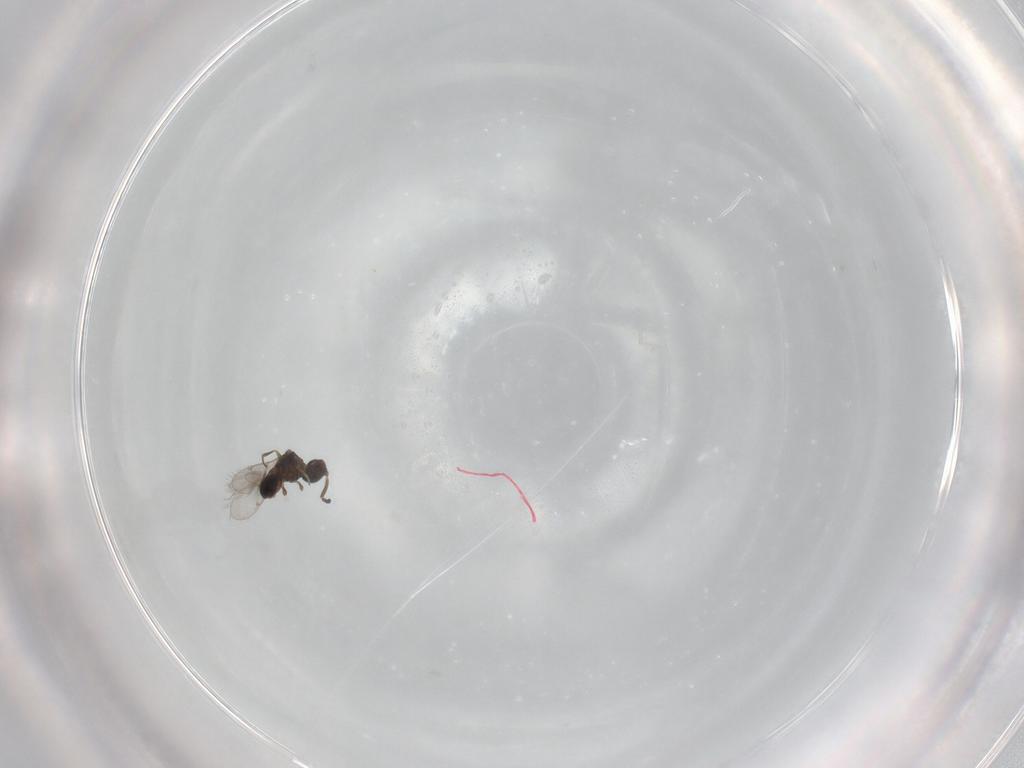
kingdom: Animalia
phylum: Arthropoda
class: Insecta
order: Hymenoptera
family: Scelionidae
